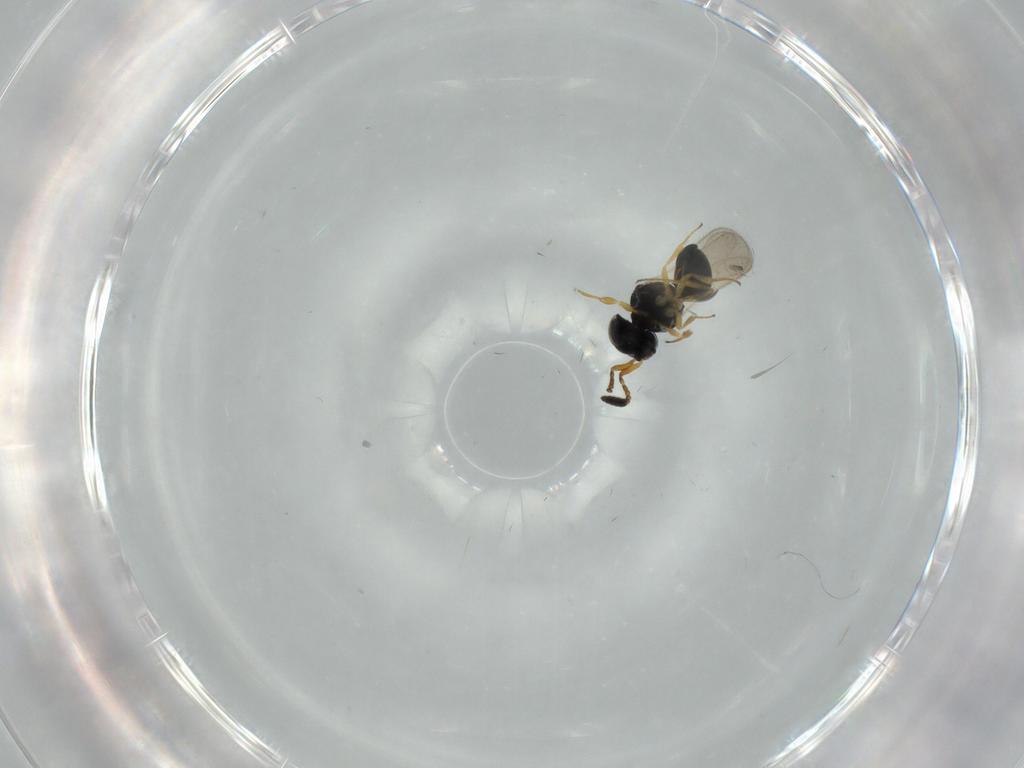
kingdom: Animalia
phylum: Arthropoda
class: Insecta
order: Hymenoptera
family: Scelionidae
